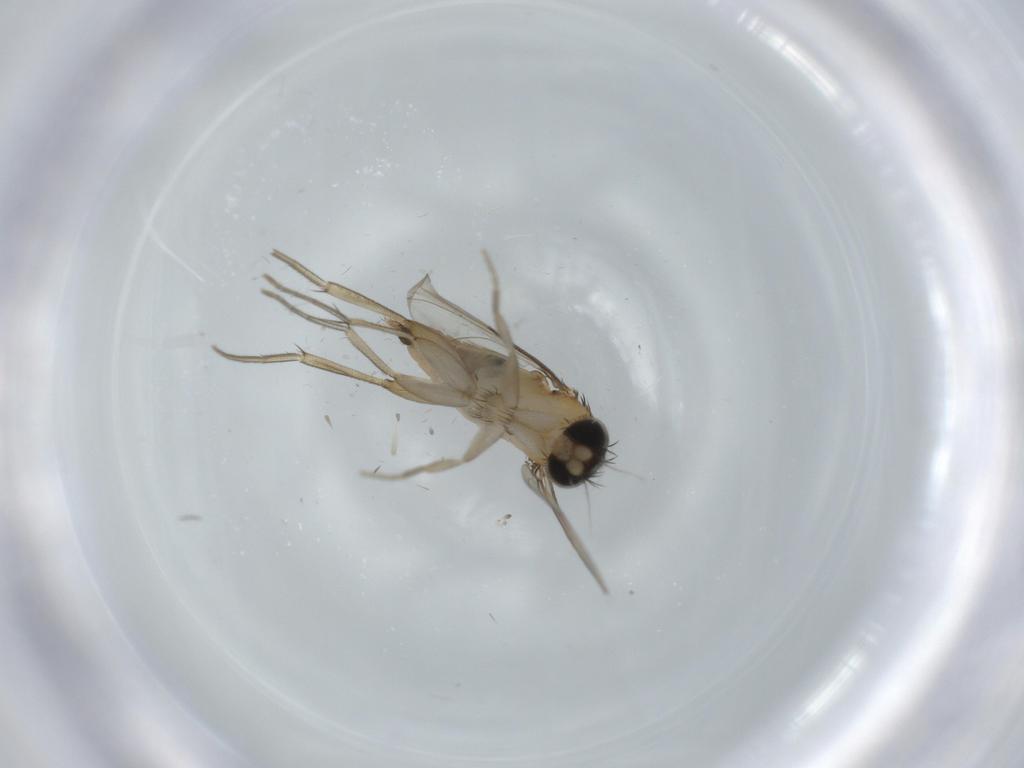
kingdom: Animalia
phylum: Arthropoda
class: Insecta
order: Diptera
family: Phoridae
